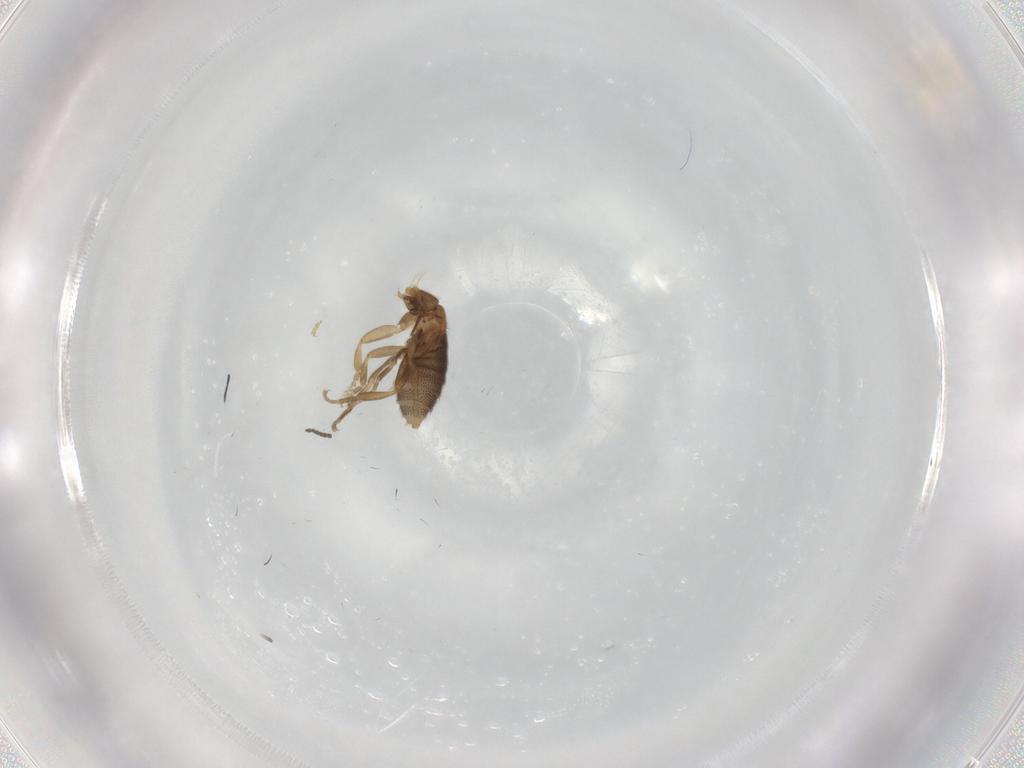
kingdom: Animalia
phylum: Arthropoda
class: Insecta
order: Diptera
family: Phoridae
